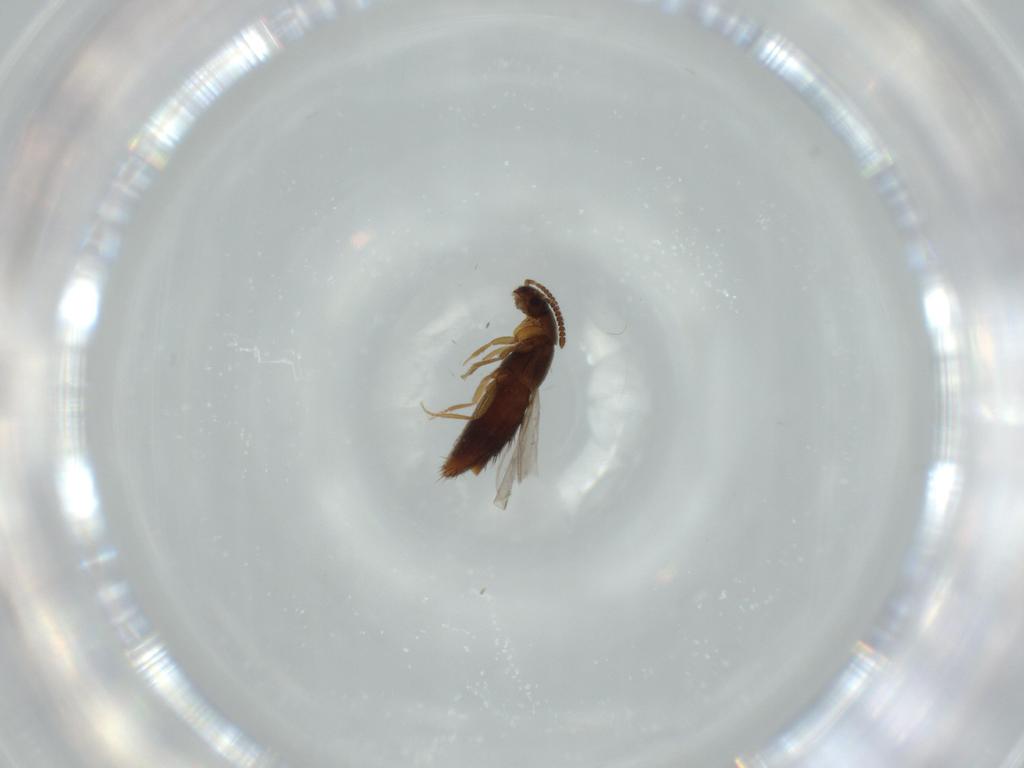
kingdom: Animalia
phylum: Arthropoda
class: Insecta
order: Coleoptera
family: Staphylinidae
